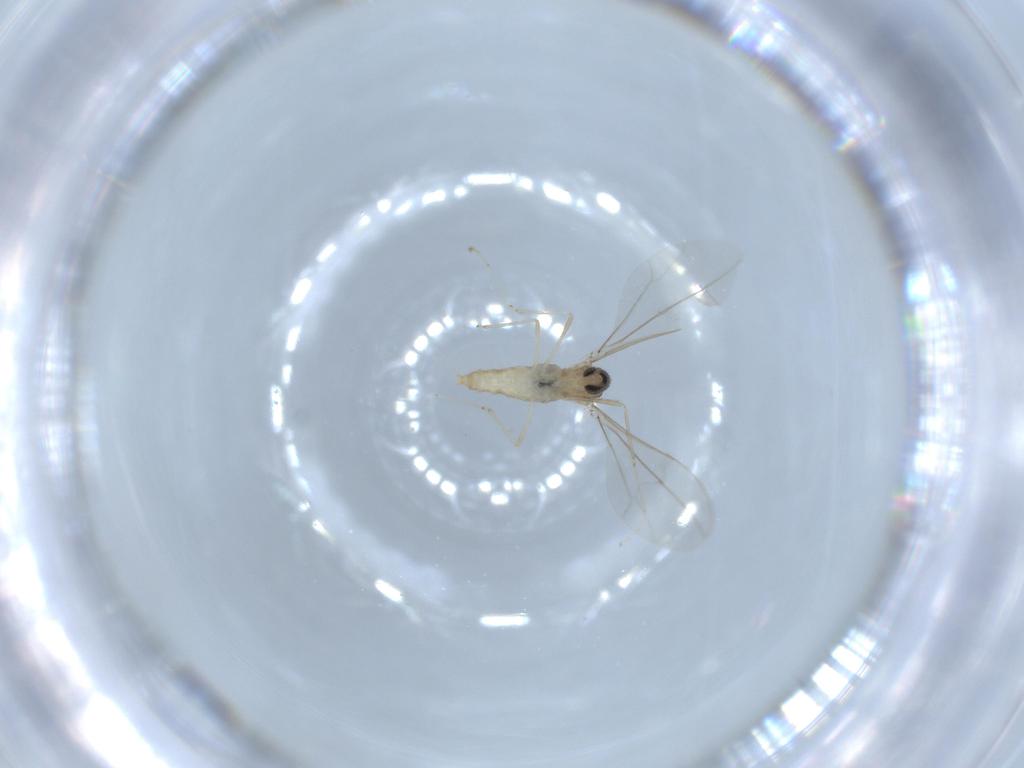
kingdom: Animalia
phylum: Arthropoda
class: Insecta
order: Diptera
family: Cecidomyiidae
